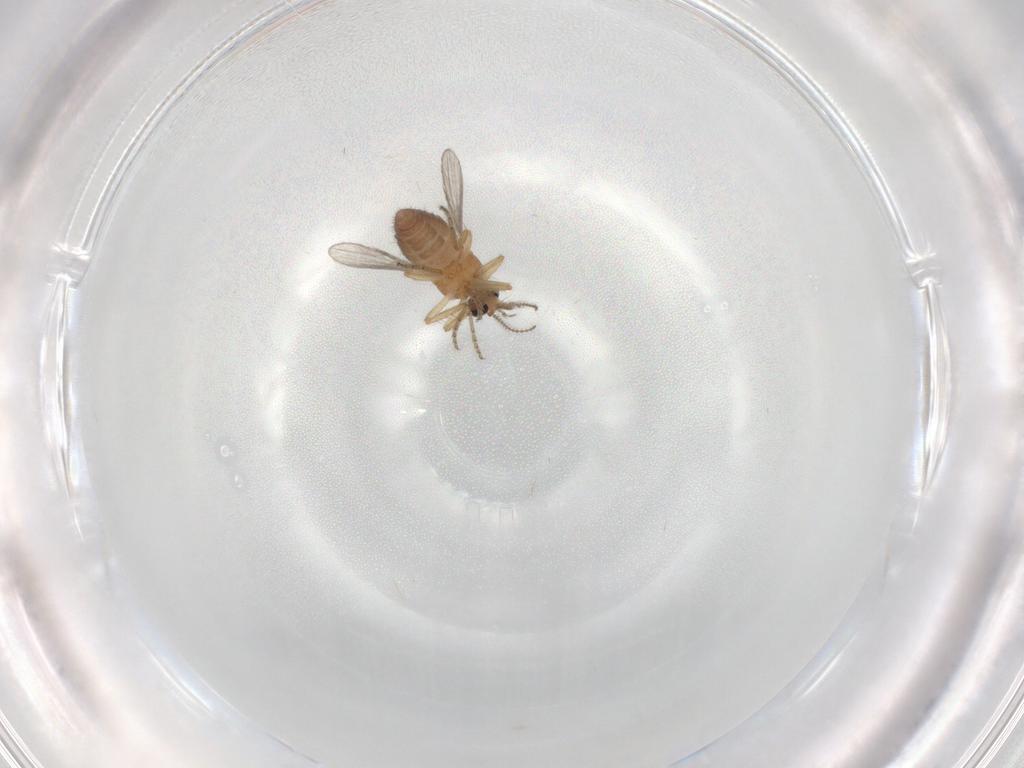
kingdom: Animalia
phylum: Arthropoda
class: Insecta
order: Diptera
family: Ceratopogonidae
